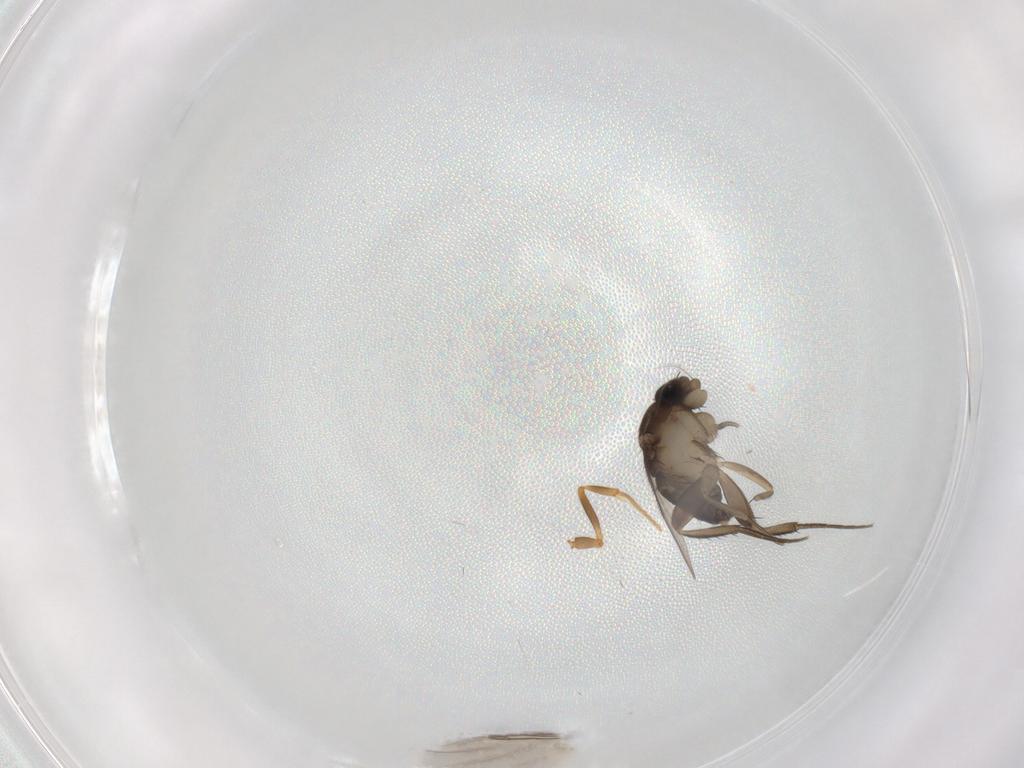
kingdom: Animalia
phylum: Arthropoda
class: Insecta
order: Diptera
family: Phoridae
